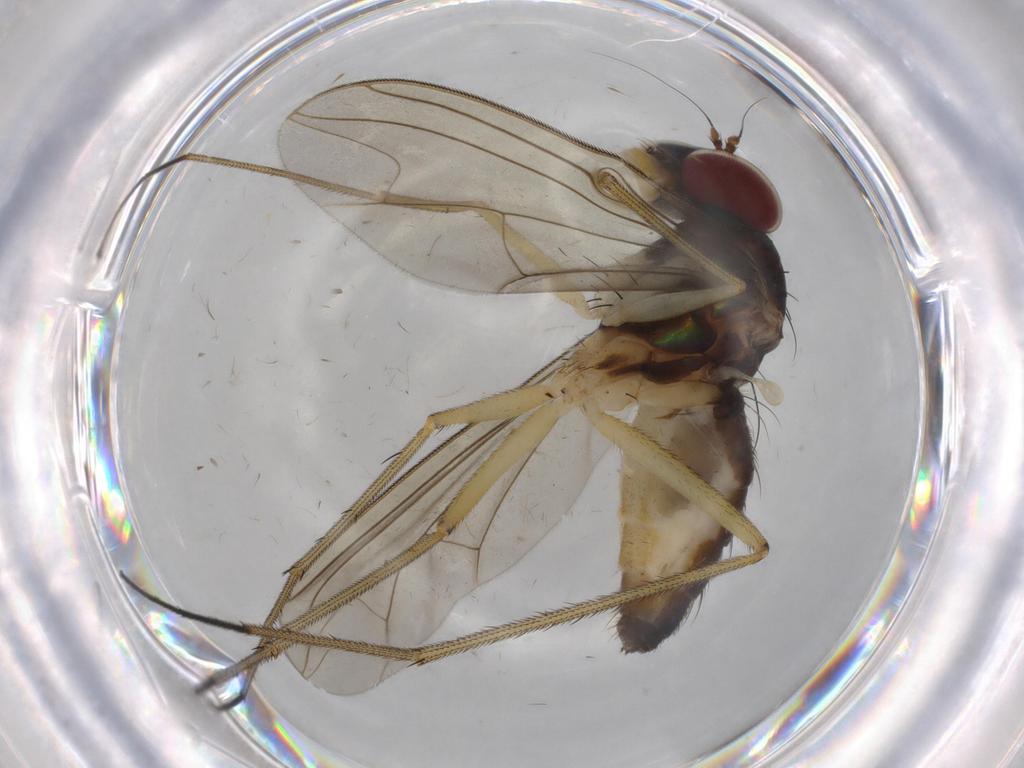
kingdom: Animalia
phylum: Arthropoda
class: Insecta
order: Diptera
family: Dolichopodidae
